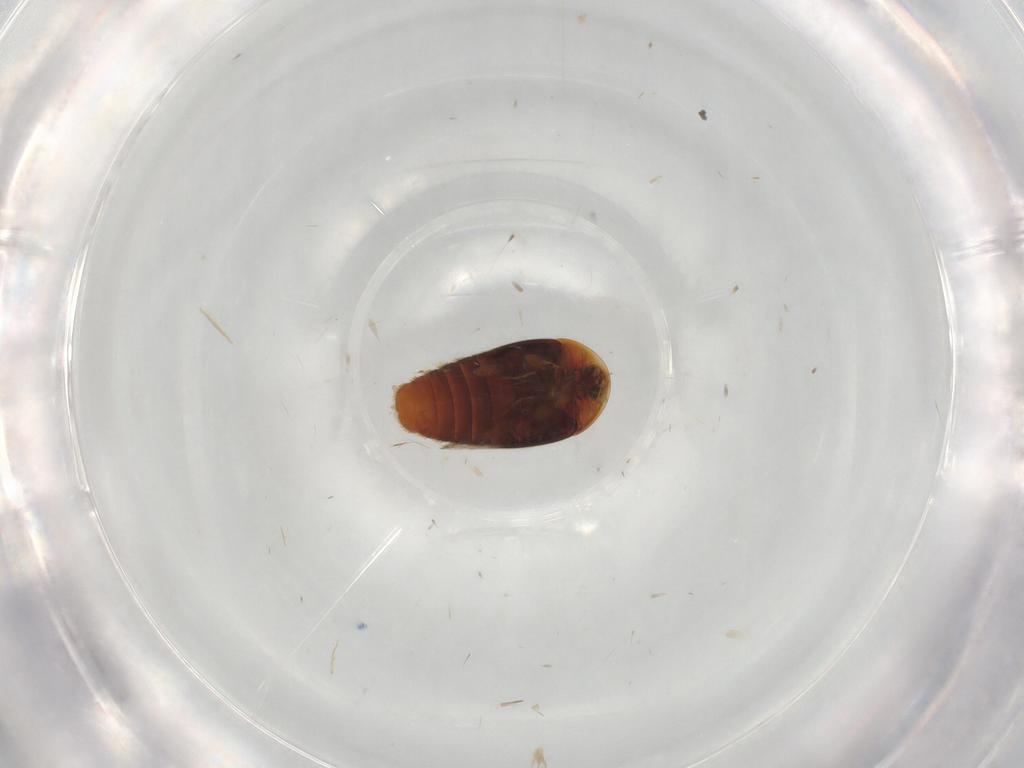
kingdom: Animalia
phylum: Arthropoda
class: Insecta
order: Coleoptera
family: Corylophidae
